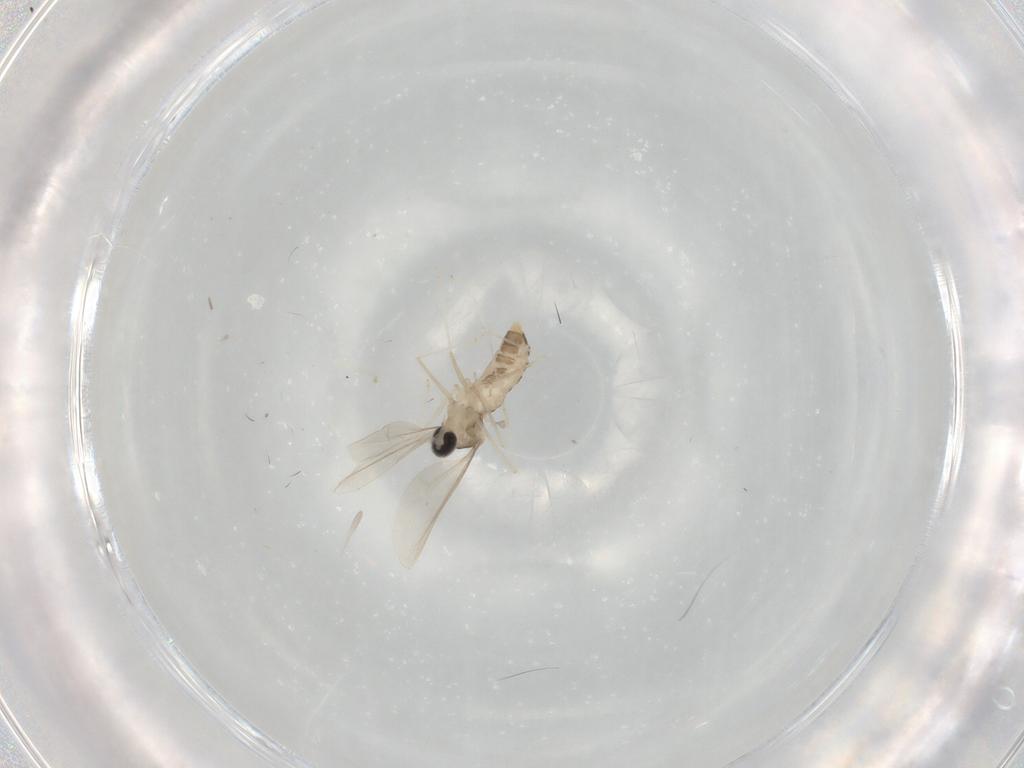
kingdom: Animalia
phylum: Arthropoda
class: Insecta
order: Diptera
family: Cecidomyiidae
